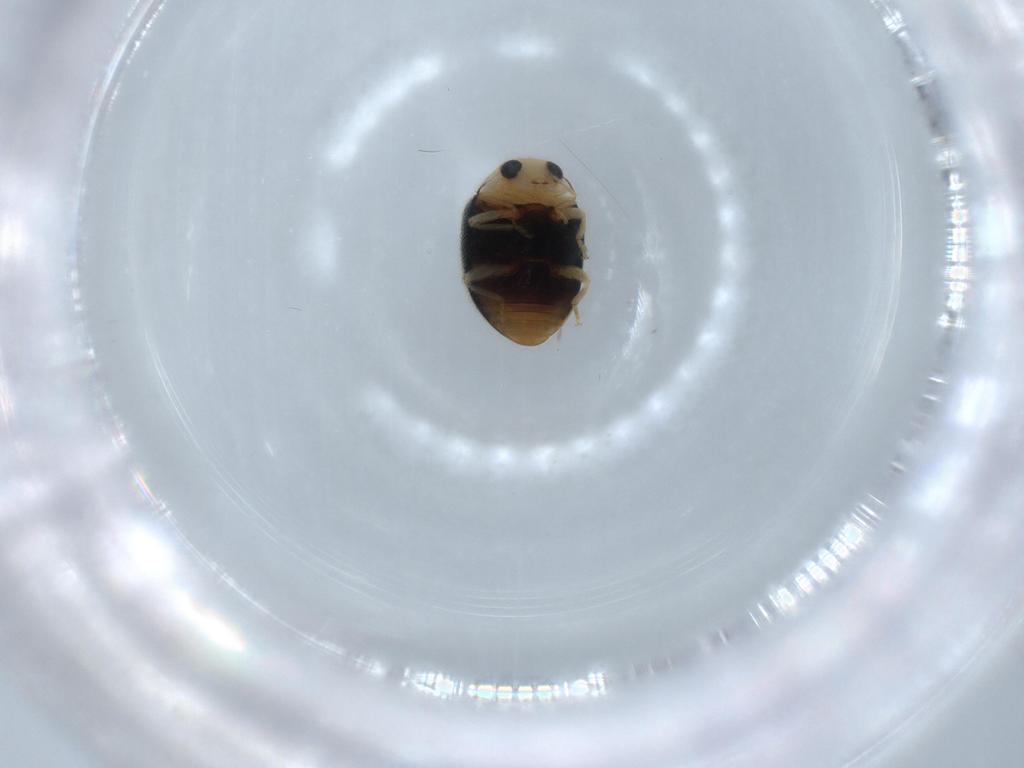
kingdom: Animalia
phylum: Arthropoda
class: Insecta
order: Coleoptera
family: Coccinellidae
